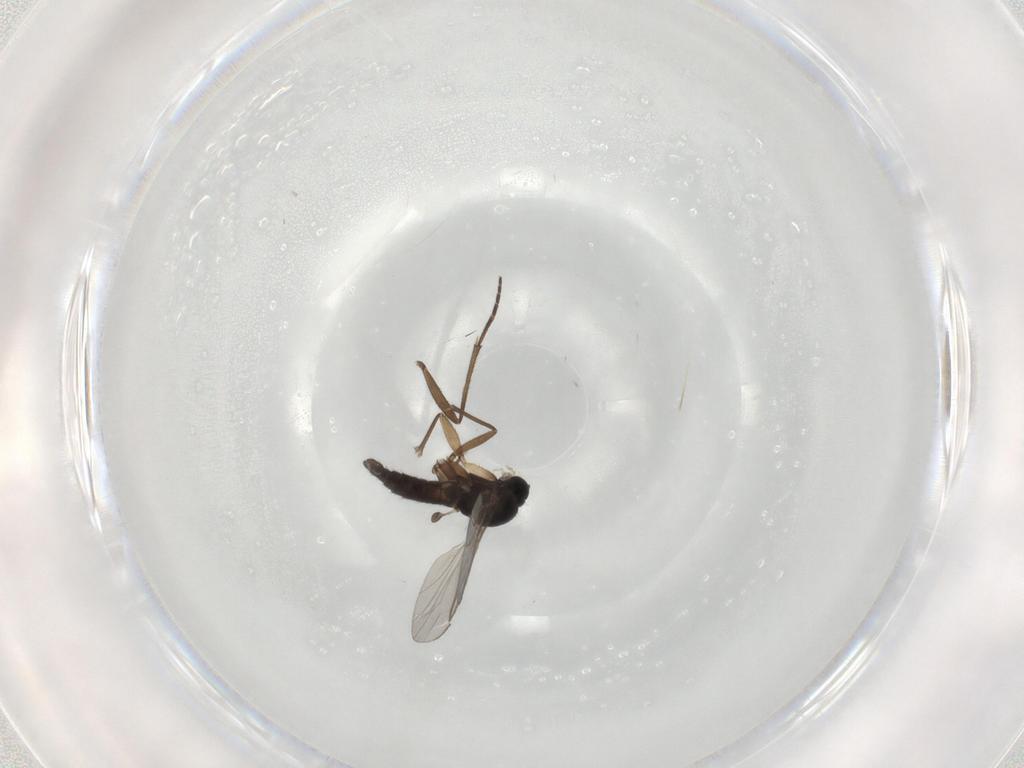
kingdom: Animalia
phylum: Arthropoda
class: Insecta
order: Diptera
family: Sciaridae
